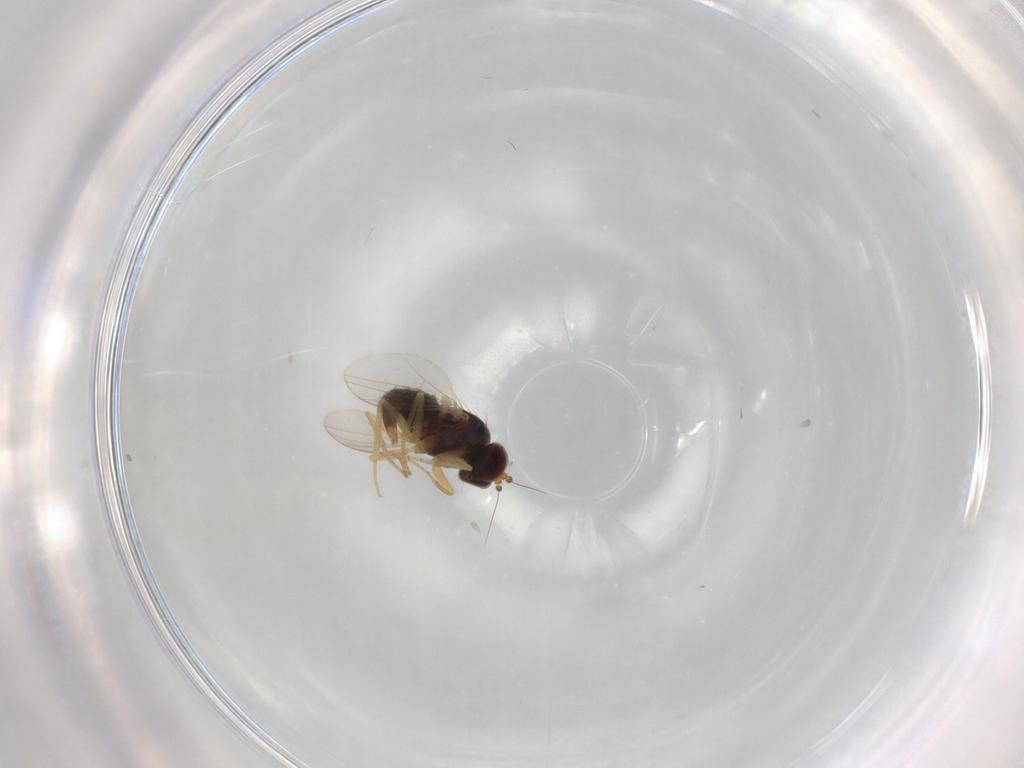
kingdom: Animalia
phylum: Arthropoda
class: Insecta
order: Diptera
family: Dolichopodidae
